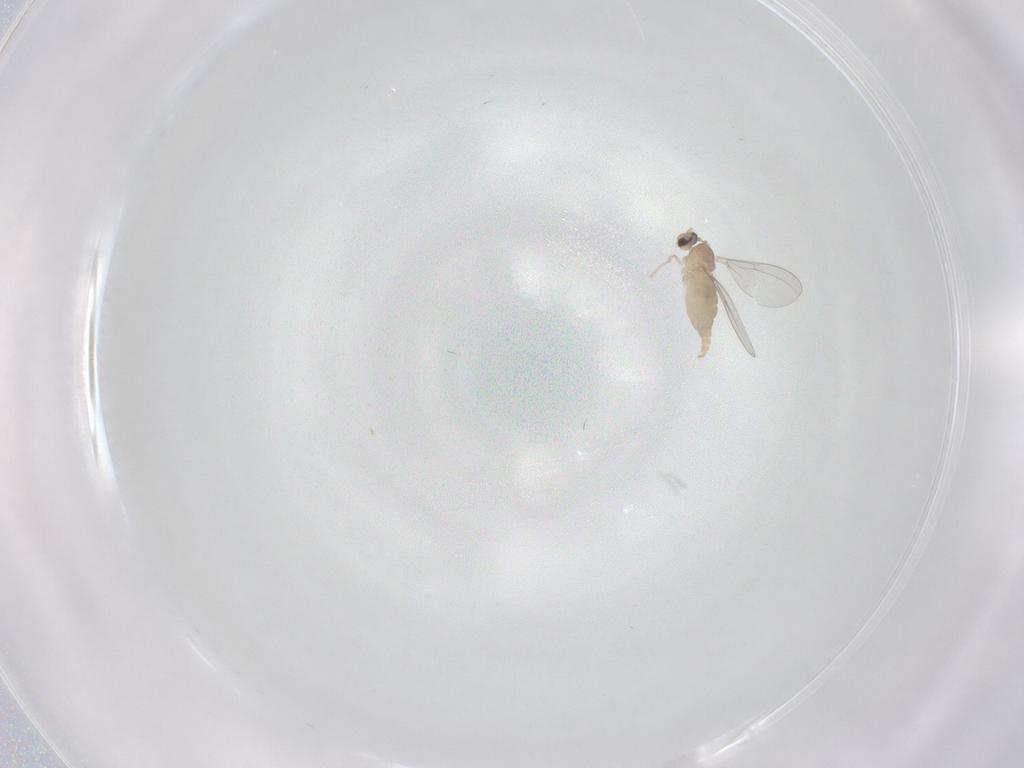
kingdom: Animalia
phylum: Arthropoda
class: Insecta
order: Diptera
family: Cecidomyiidae
